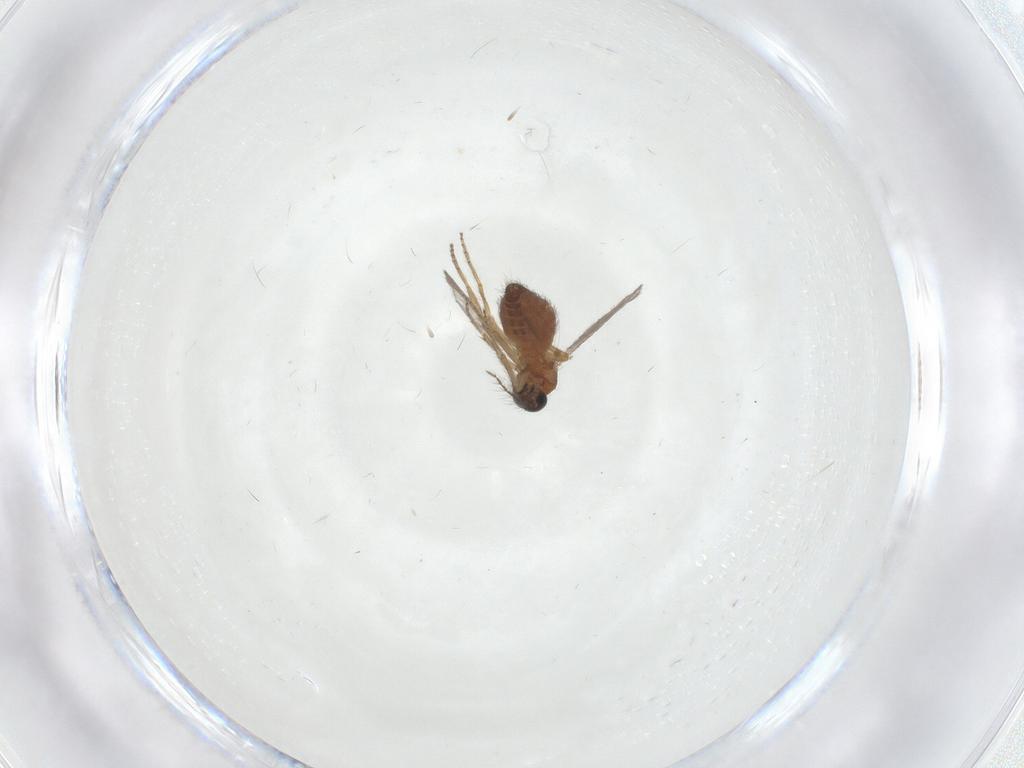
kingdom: Animalia
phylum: Arthropoda
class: Insecta
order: Diptera
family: Ceratopogonidae
